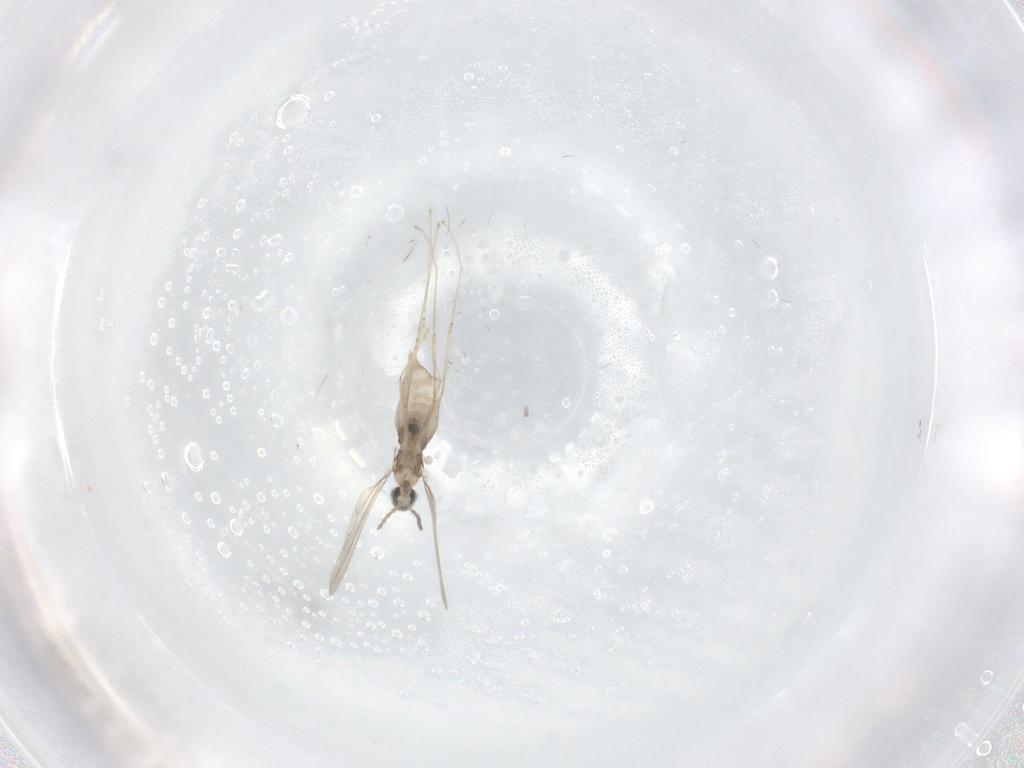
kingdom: Animalia
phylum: Arthropoda
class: Insecta
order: Diptera
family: Cecidomyiidae
